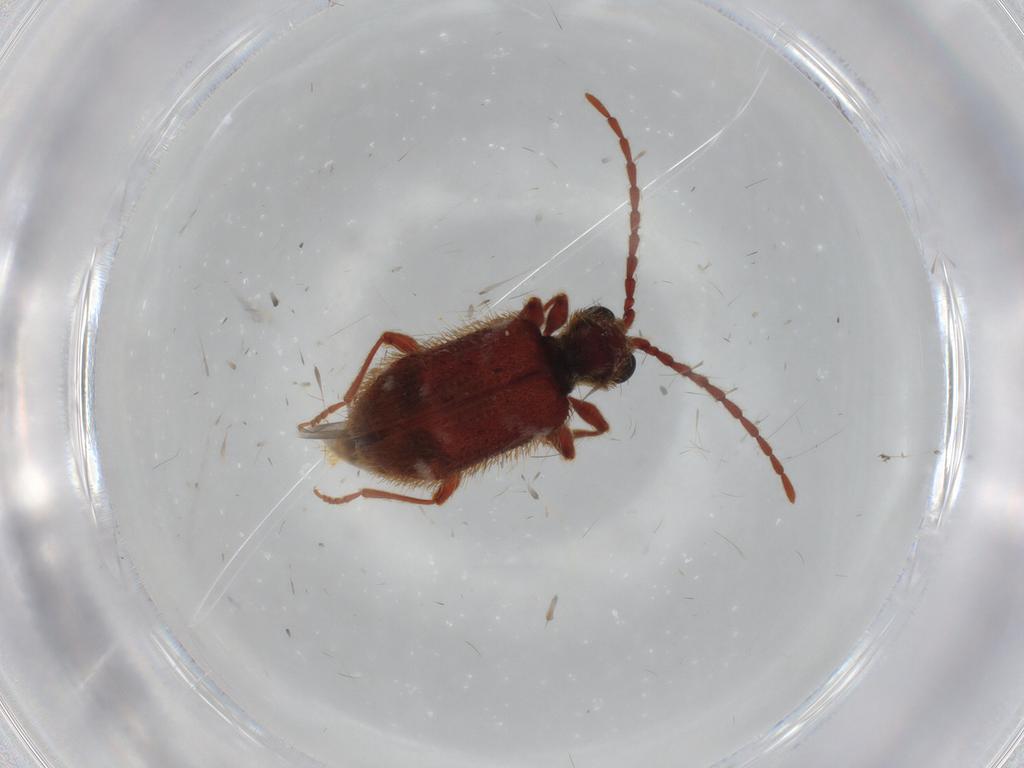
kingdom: Animalia
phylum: Arthropoda
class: Insecta
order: Coleoptera
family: Ptinidae
